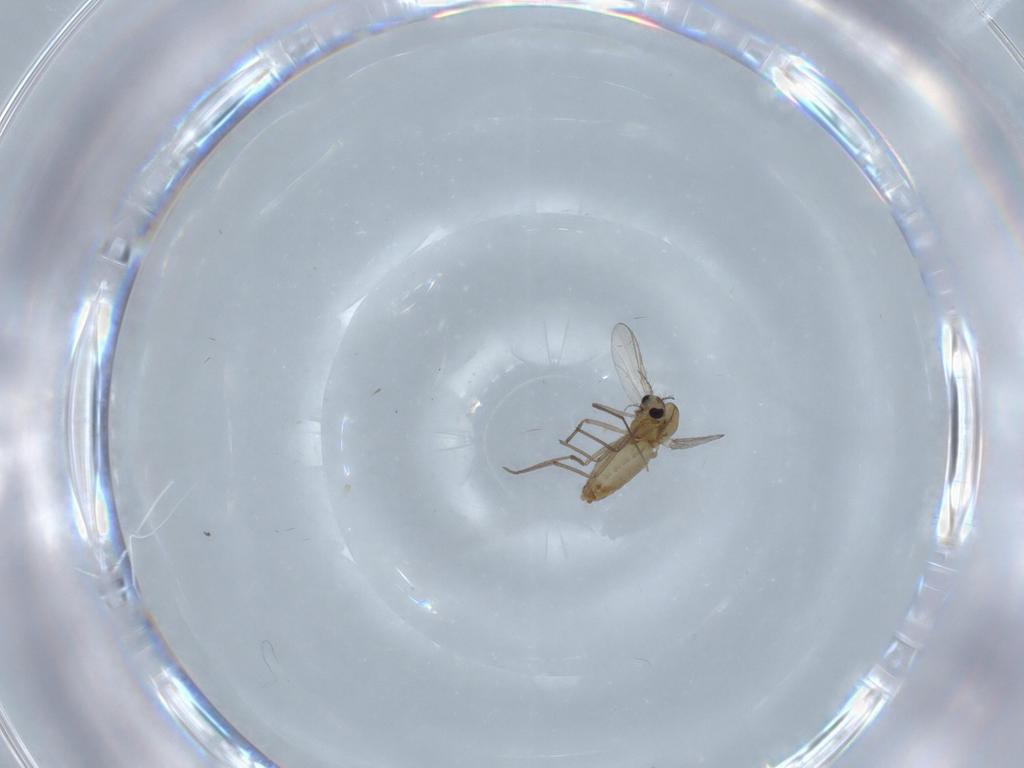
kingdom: Animalia
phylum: Arthropoda
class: Insecta
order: Diptera
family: Chironomidae
